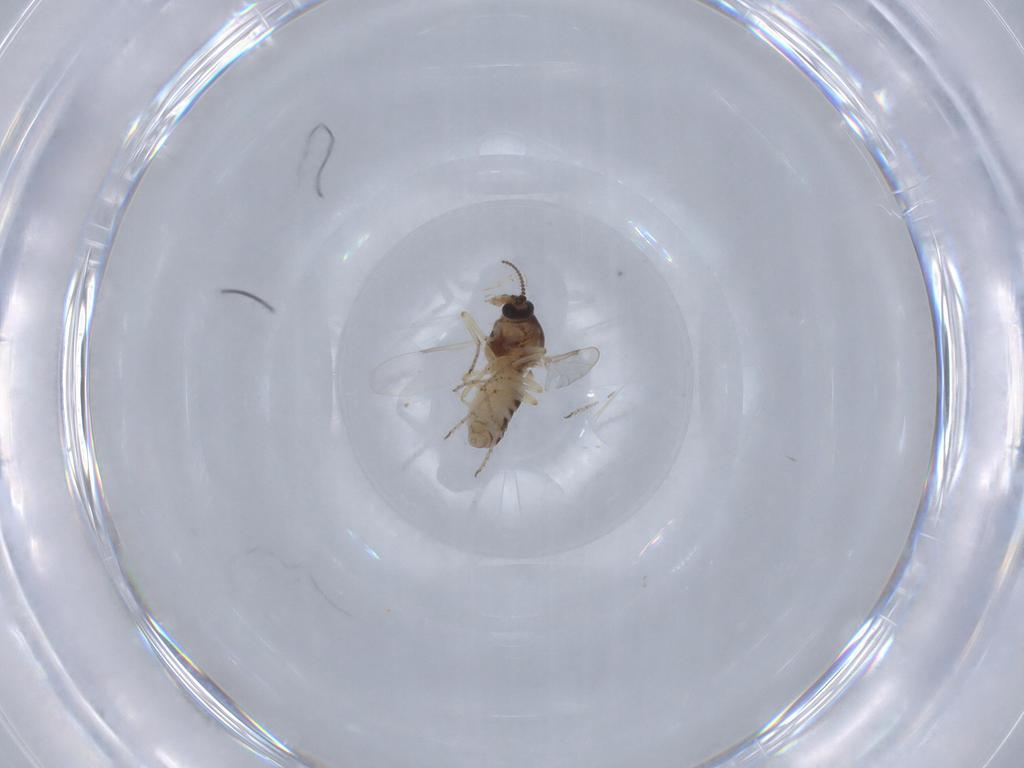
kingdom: Animalia
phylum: Arthropoda
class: Insecta
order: Diptera
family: Ceratopogonidae
